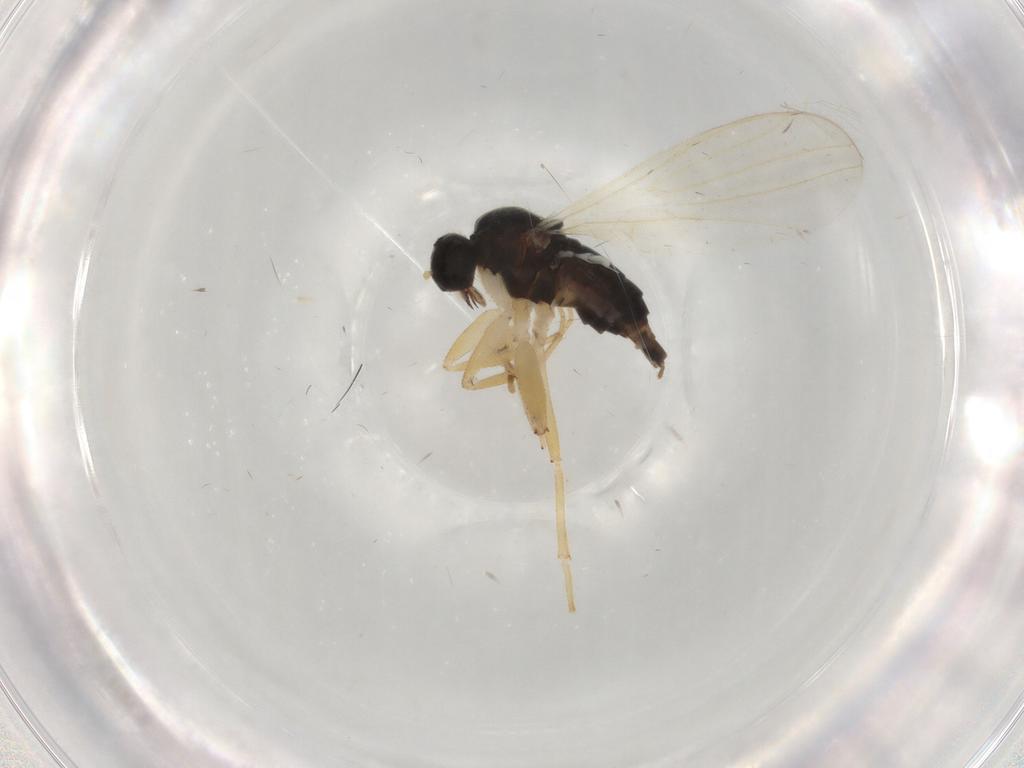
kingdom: Animalia
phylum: Arthropoda
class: Insecta
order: Diptera
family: Hybotidae
